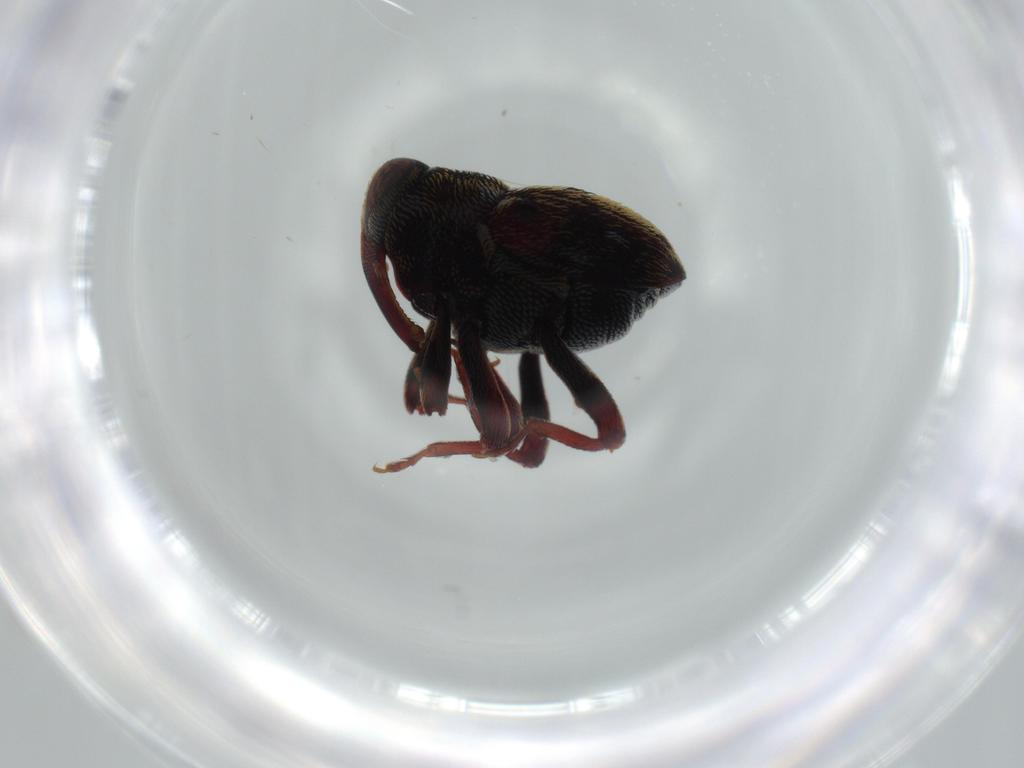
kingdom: Animalia
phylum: Arthropoda
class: Insecta
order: Coleoptera
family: Curculionidae
